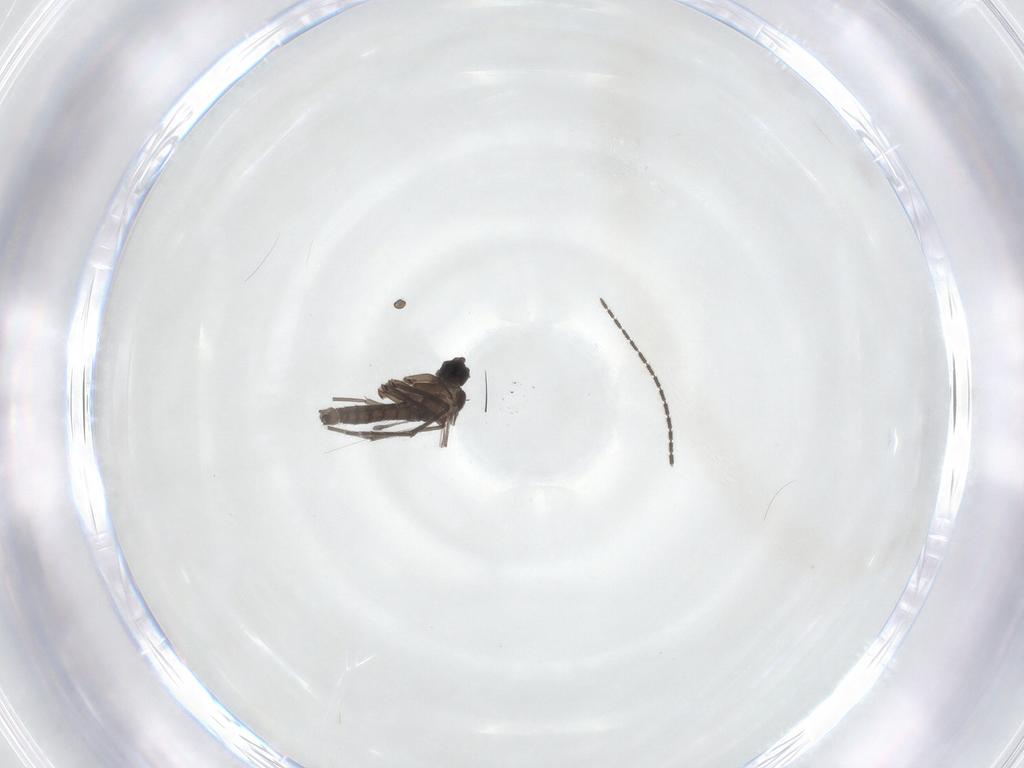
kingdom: Animalia
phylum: Arthropoda
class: Insecta
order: Diptera
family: Sciaridae
